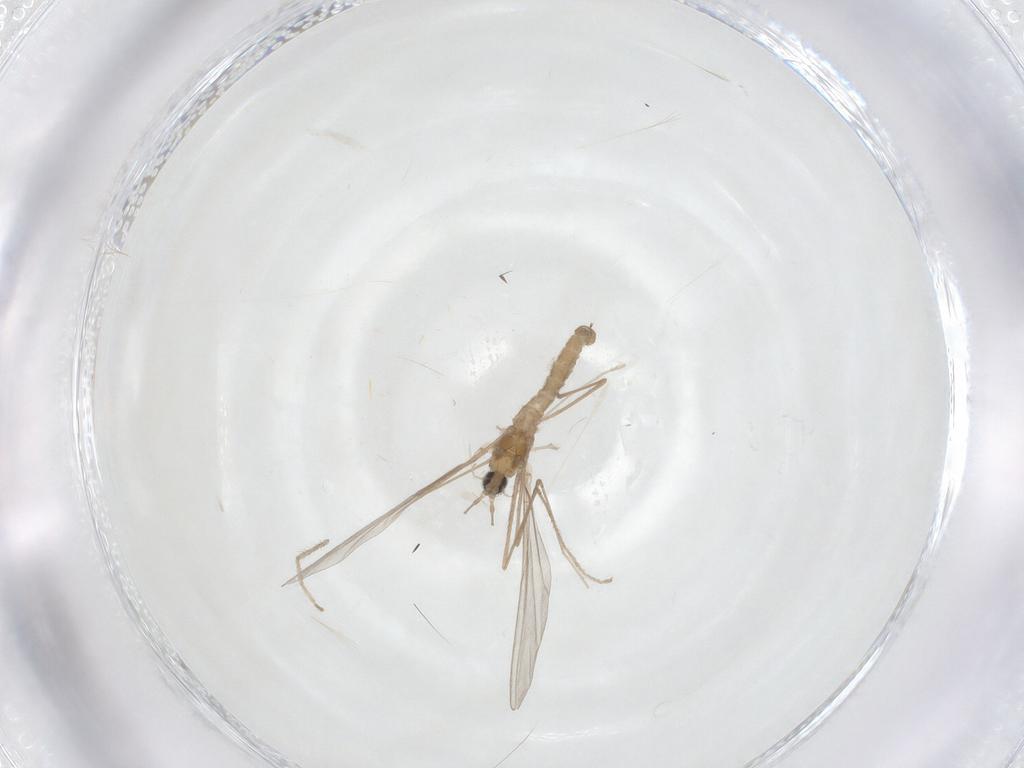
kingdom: Animalia
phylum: Arthropoda
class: Insecta
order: Diptera
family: Cecidomyiidae
